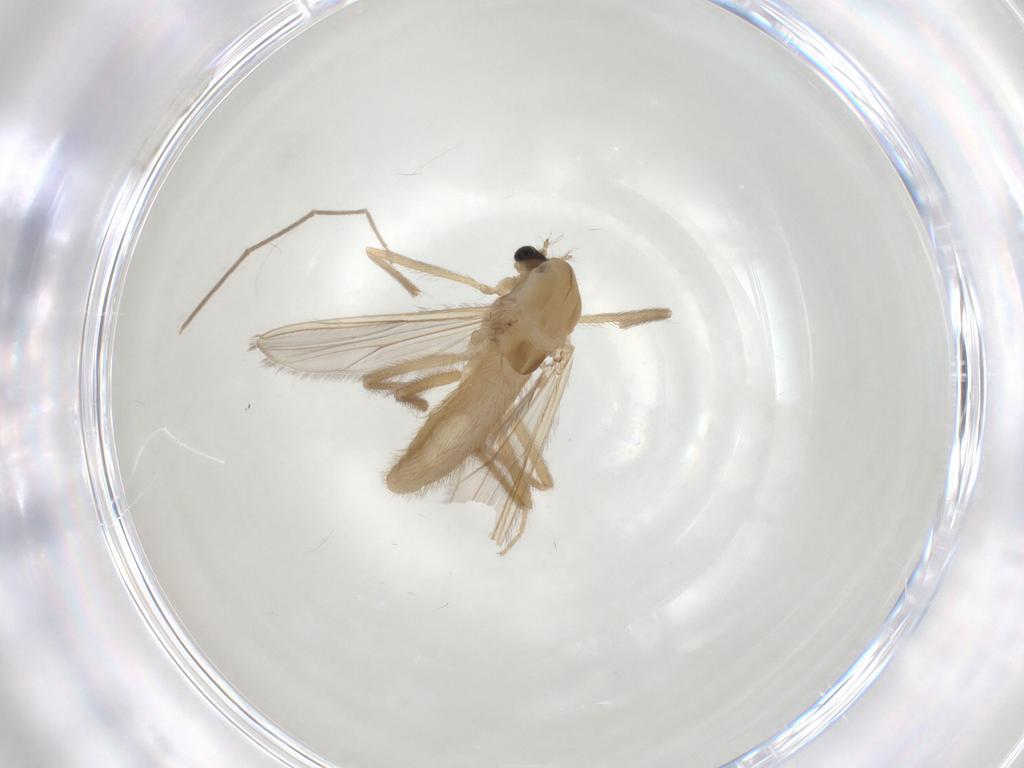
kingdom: Animalia
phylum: Arthropoda
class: Insecta
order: Diptera
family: Chironomidae
